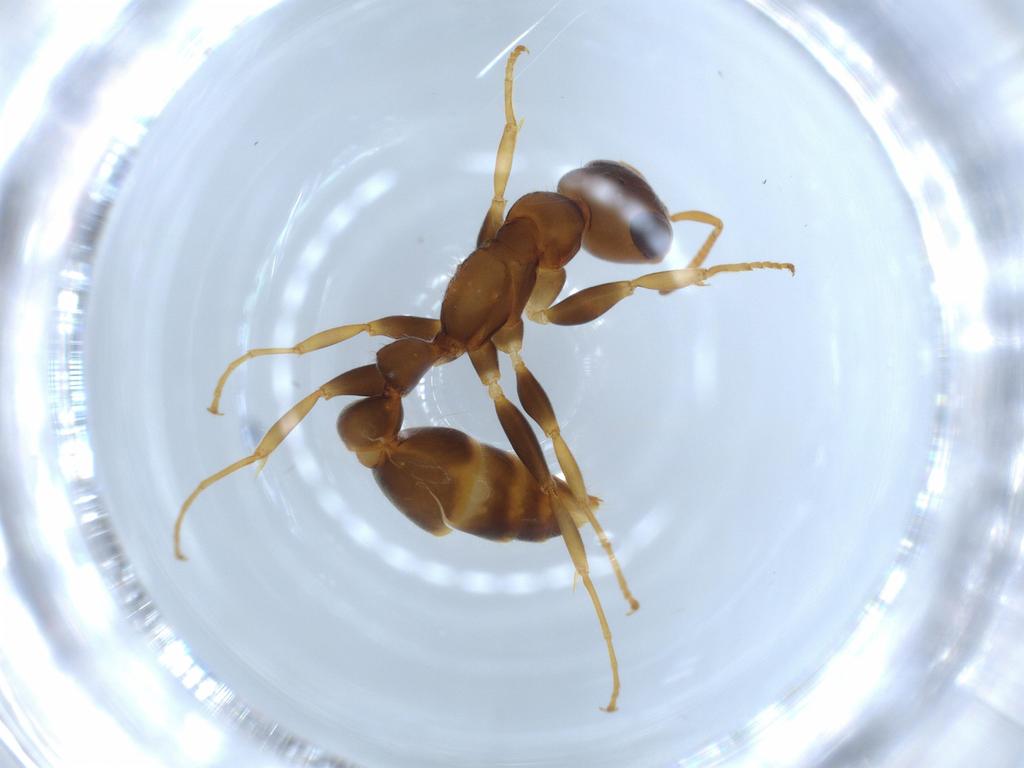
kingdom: Animalia
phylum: Arthropoda
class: Insecta
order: Hymenoptera
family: Formicidae
